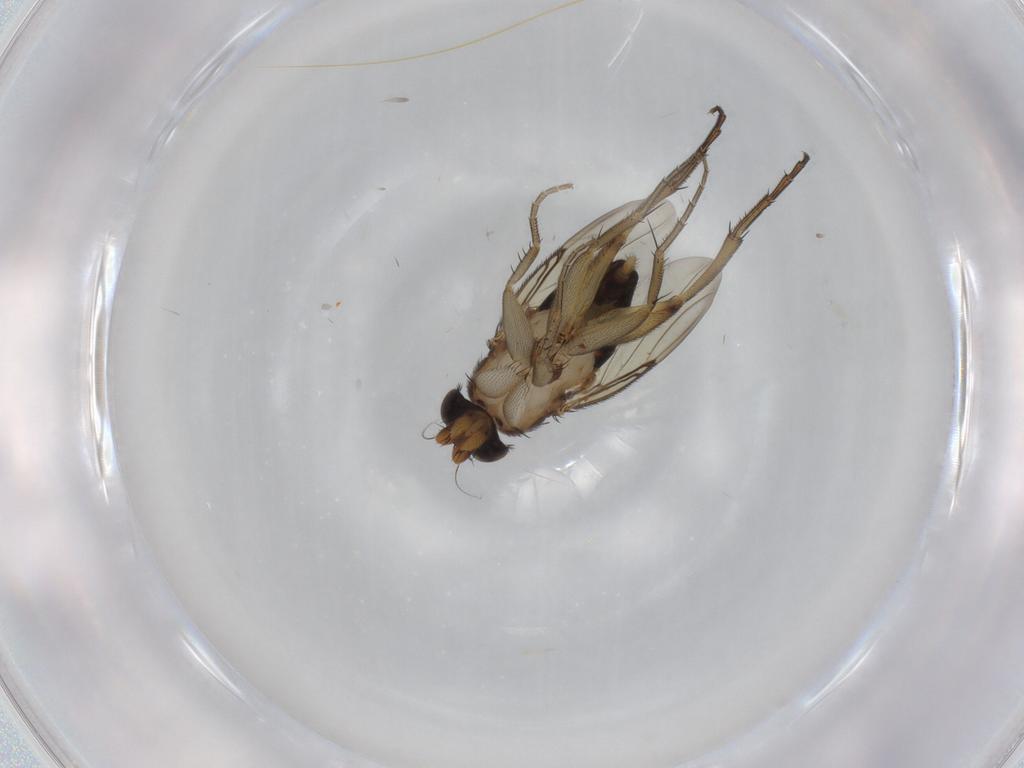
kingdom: Animalia
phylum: Arthropoda
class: Insecta
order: Diptera
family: Phoridae
